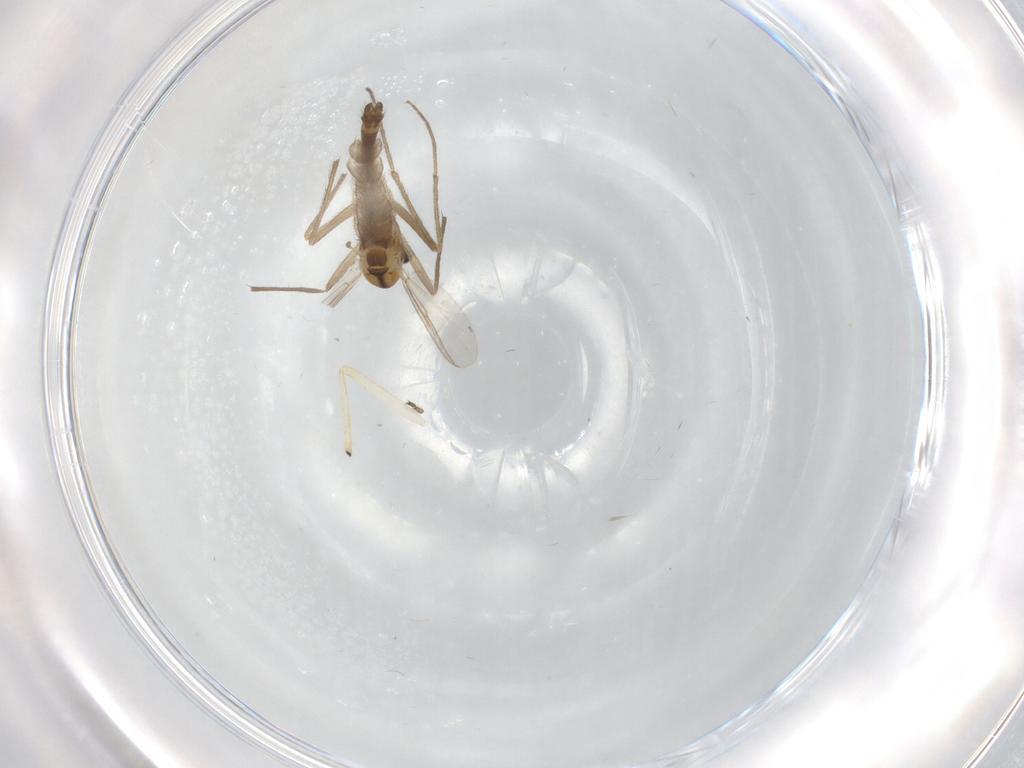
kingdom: Animalia
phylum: Arthropoda
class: Insecta
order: Diptera
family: Chironomidae
